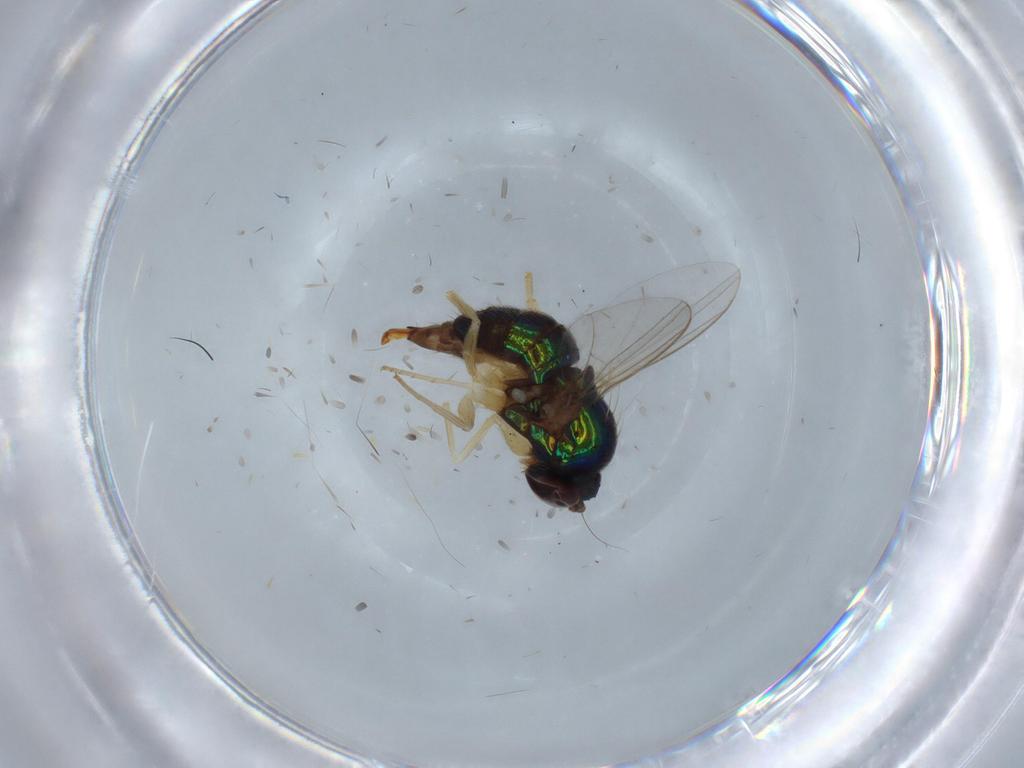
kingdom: Animalia
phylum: Arthropoda
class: Insecta
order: Diptera
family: Dolichopodidae
